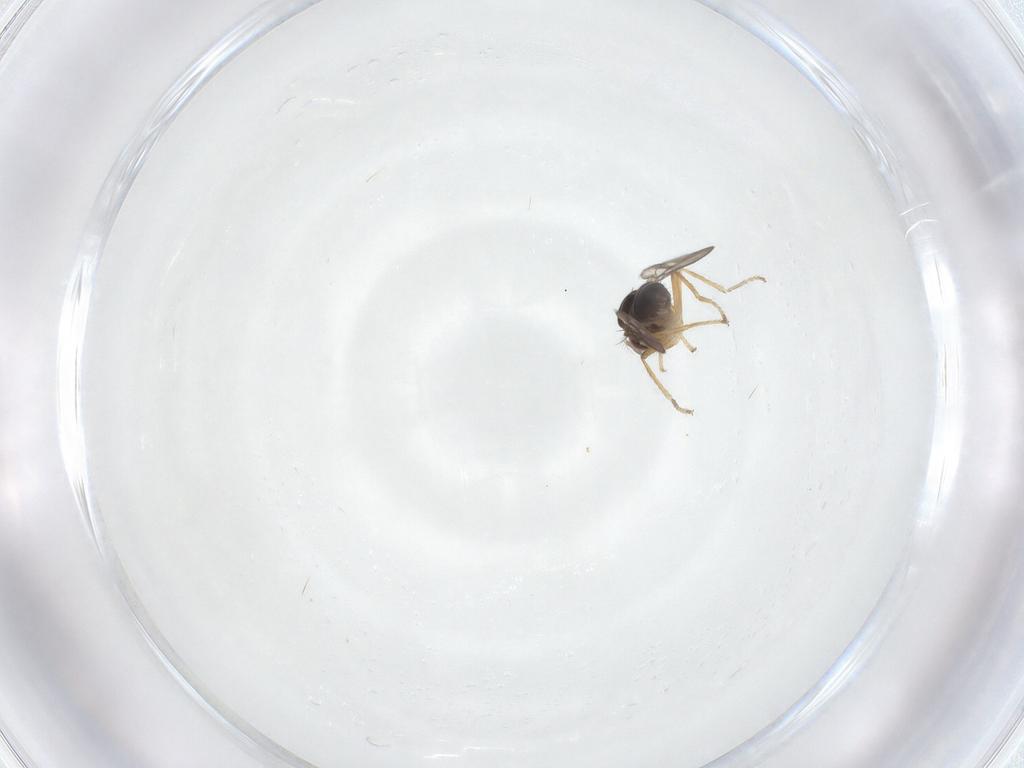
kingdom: Animalia
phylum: Arthropoda
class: Insecta
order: Diptera
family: Ephydridae
